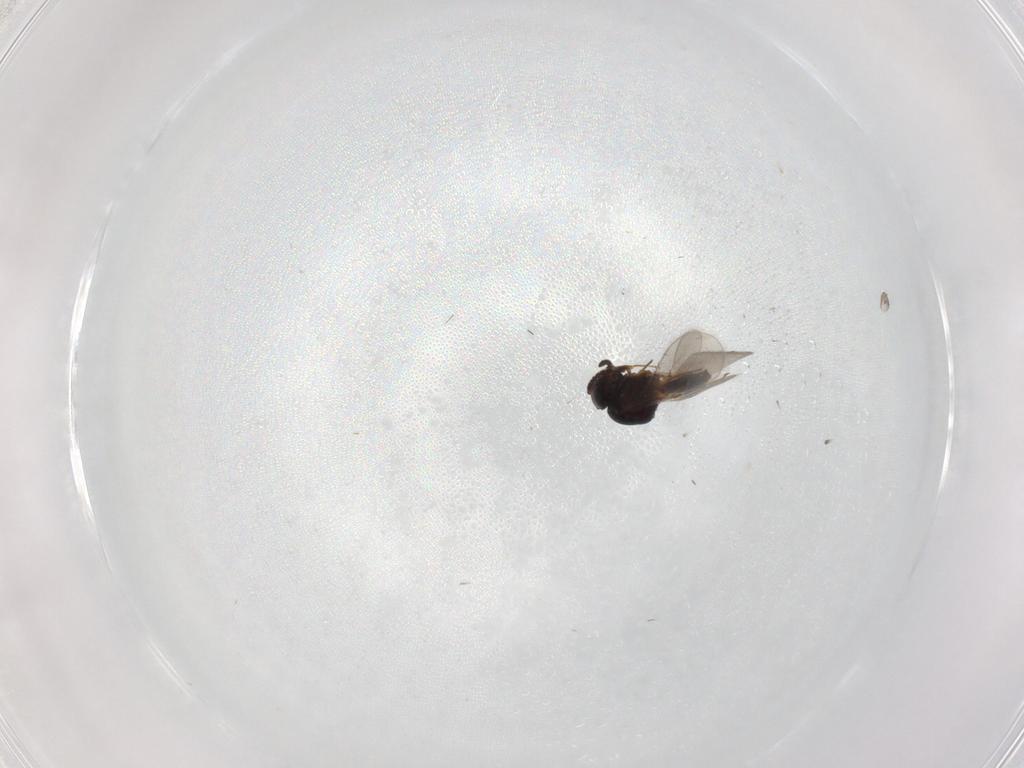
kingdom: Animalia
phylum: Arthropoda
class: Insecta
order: Hymenoptera
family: Scelionidae
